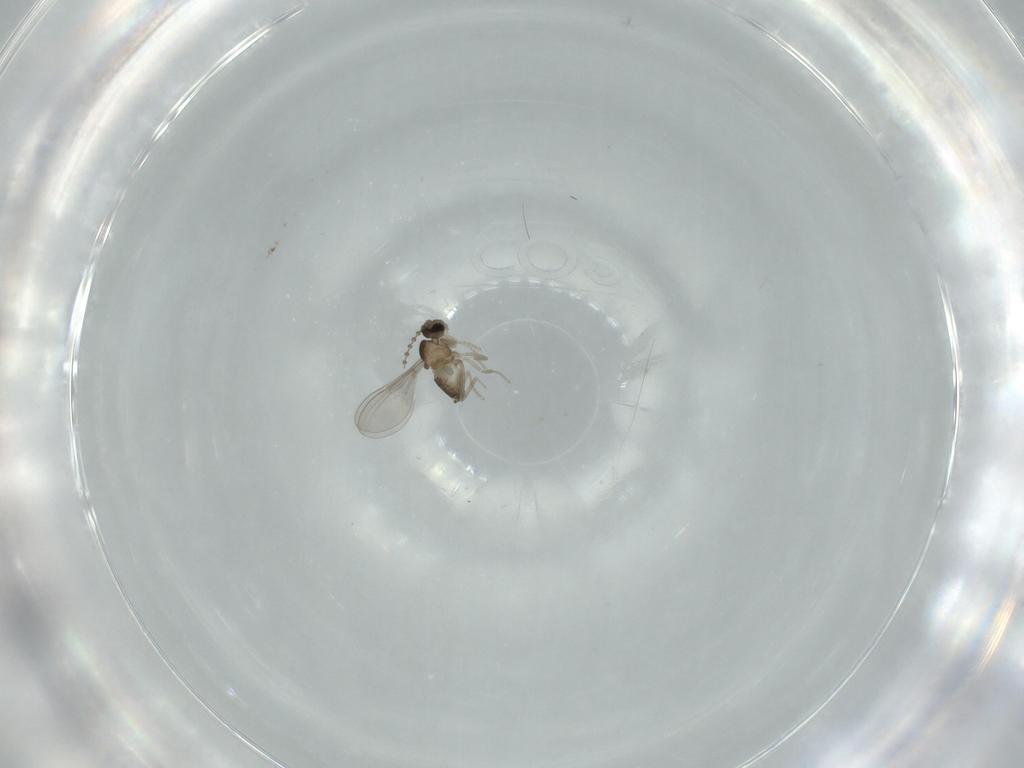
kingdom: Animalia
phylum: Arthropoda
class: Insecta
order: Diptera
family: Cecidomyiidae
